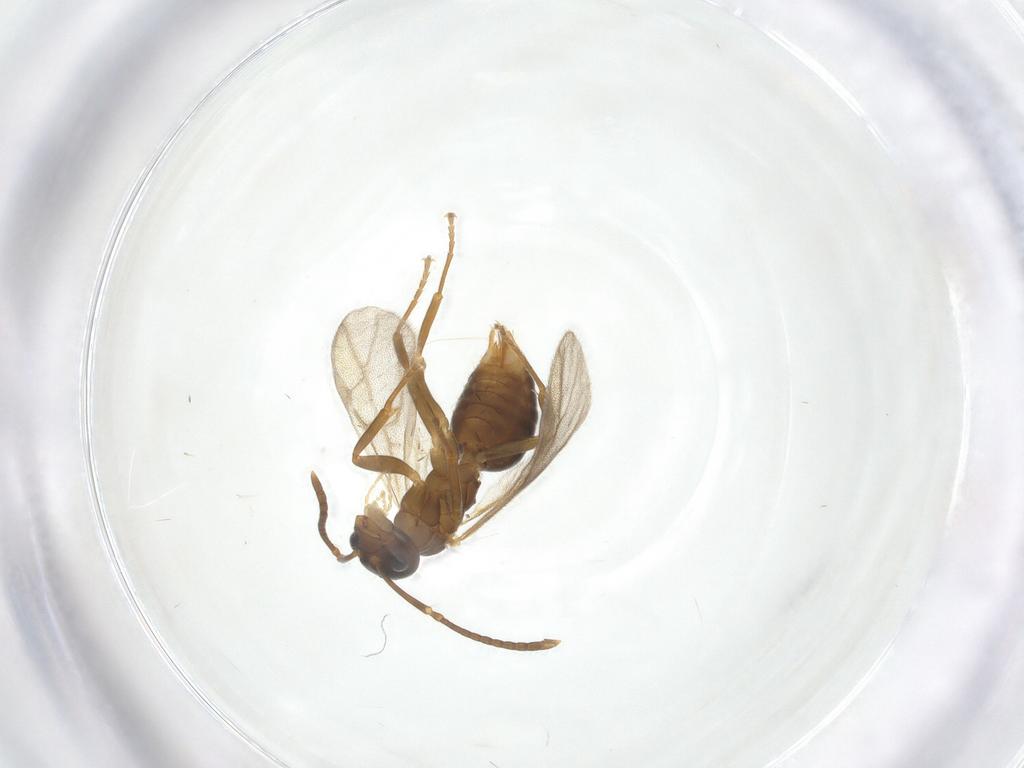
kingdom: Animalia
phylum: Arthropoda
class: Insecta
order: Hymenoptera
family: Formicidae
